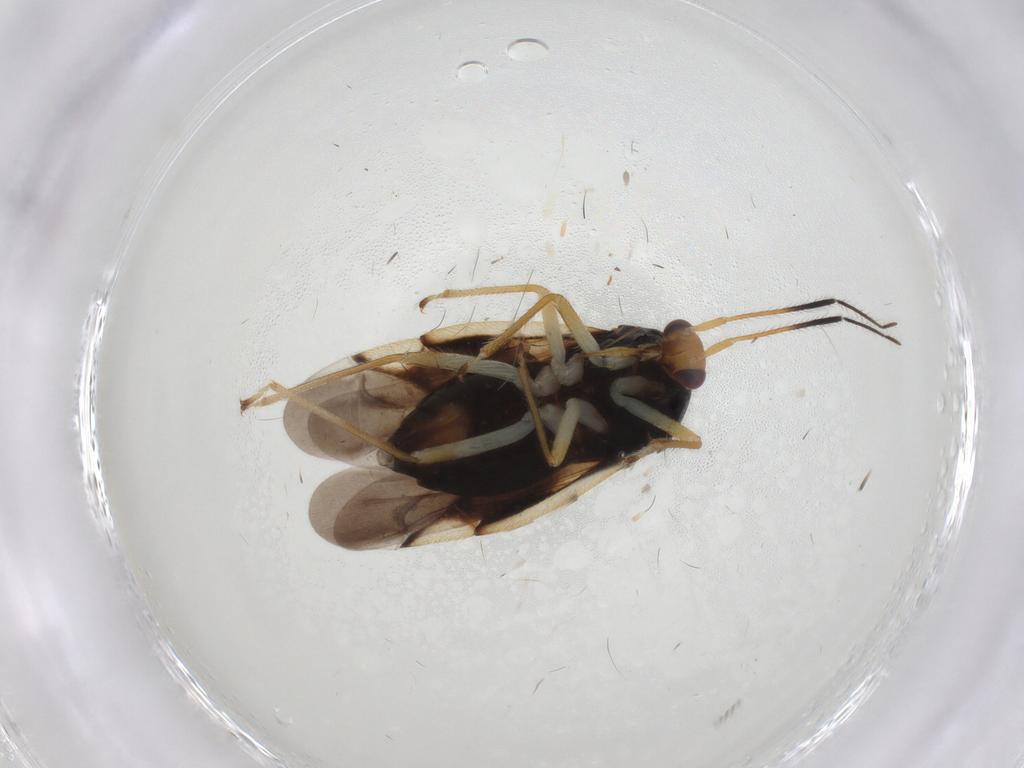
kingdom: Animalia
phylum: Arthropoda
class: Insecta
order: Hemiptera
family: Miridae
